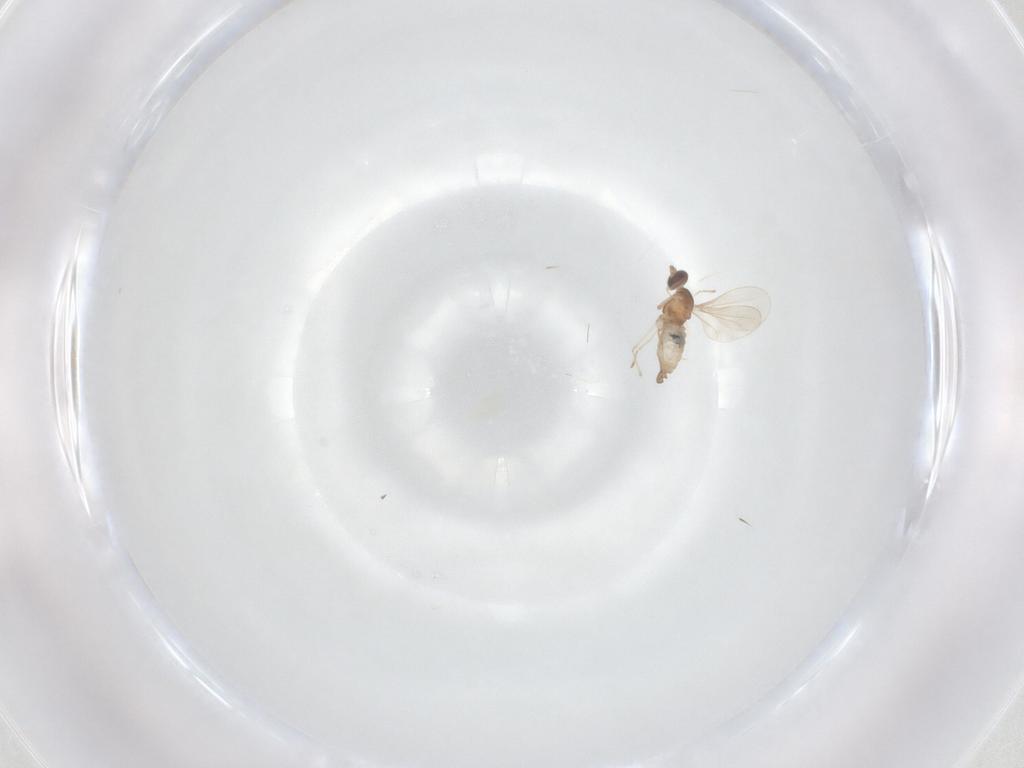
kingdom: Animalia
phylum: Arthropoda
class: Insecta
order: Diptera
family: Cecidomyiidae
